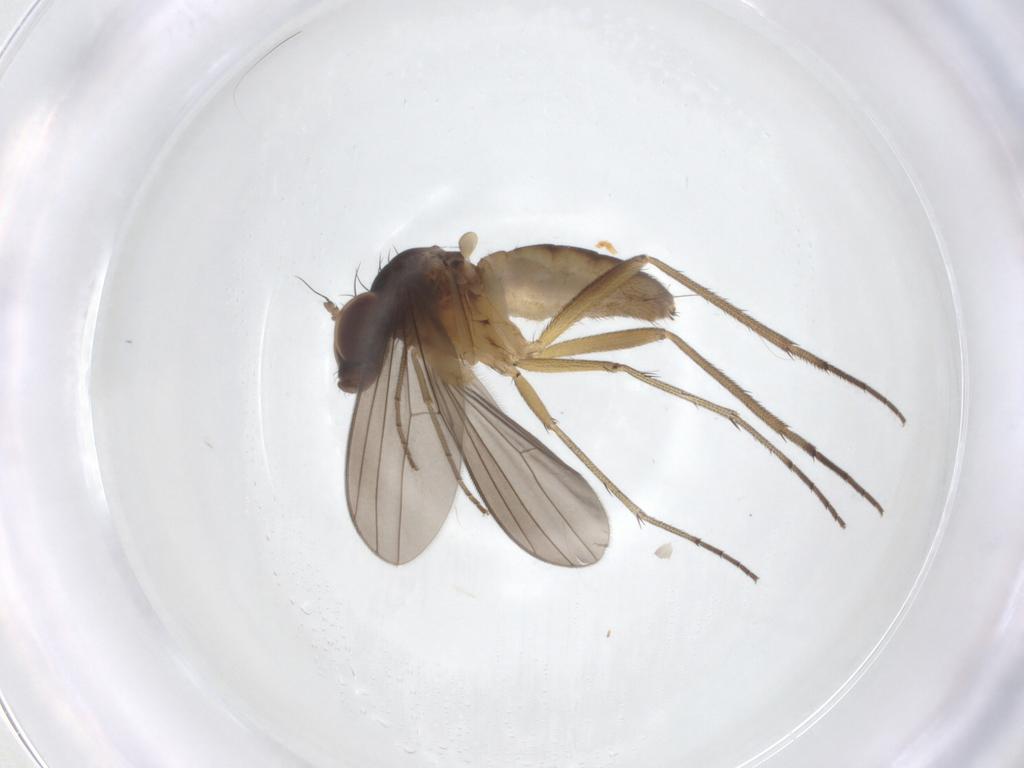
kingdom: Animalia
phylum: Arthropoda
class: Insecta
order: Diptera
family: Dolichopodidae
